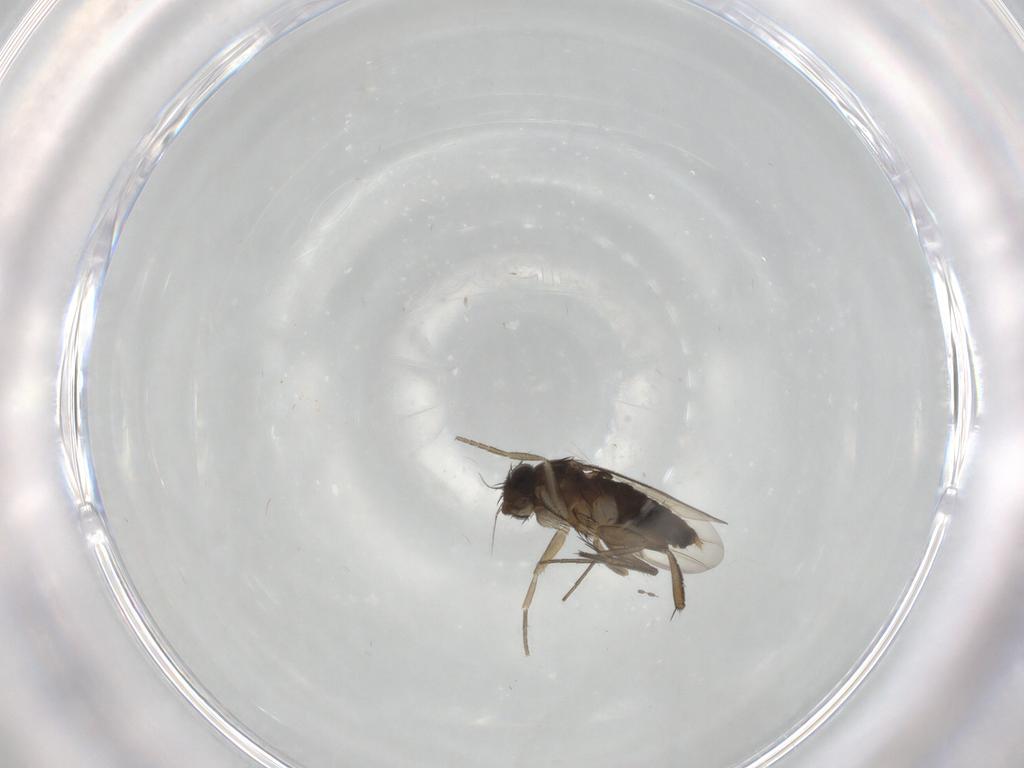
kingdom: Animalia
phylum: Arthropoda
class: Insecta
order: Diptera
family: Phoridae
